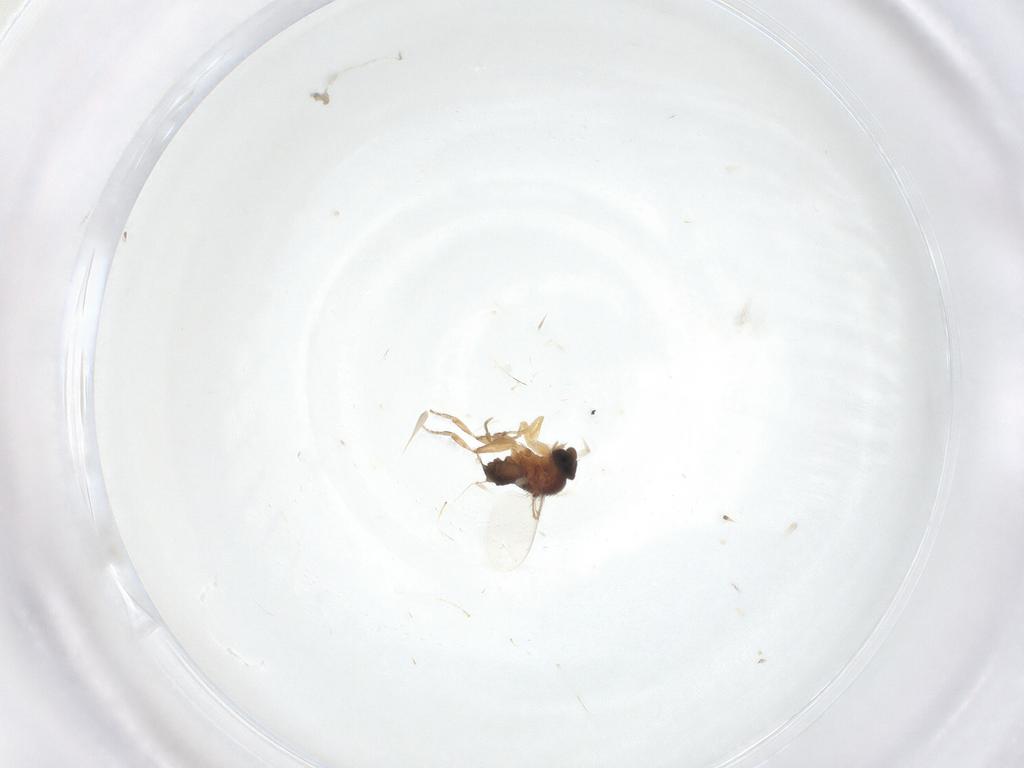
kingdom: Animalia
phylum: Arthropoda
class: Insecta
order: Diptera
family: Phoridae
